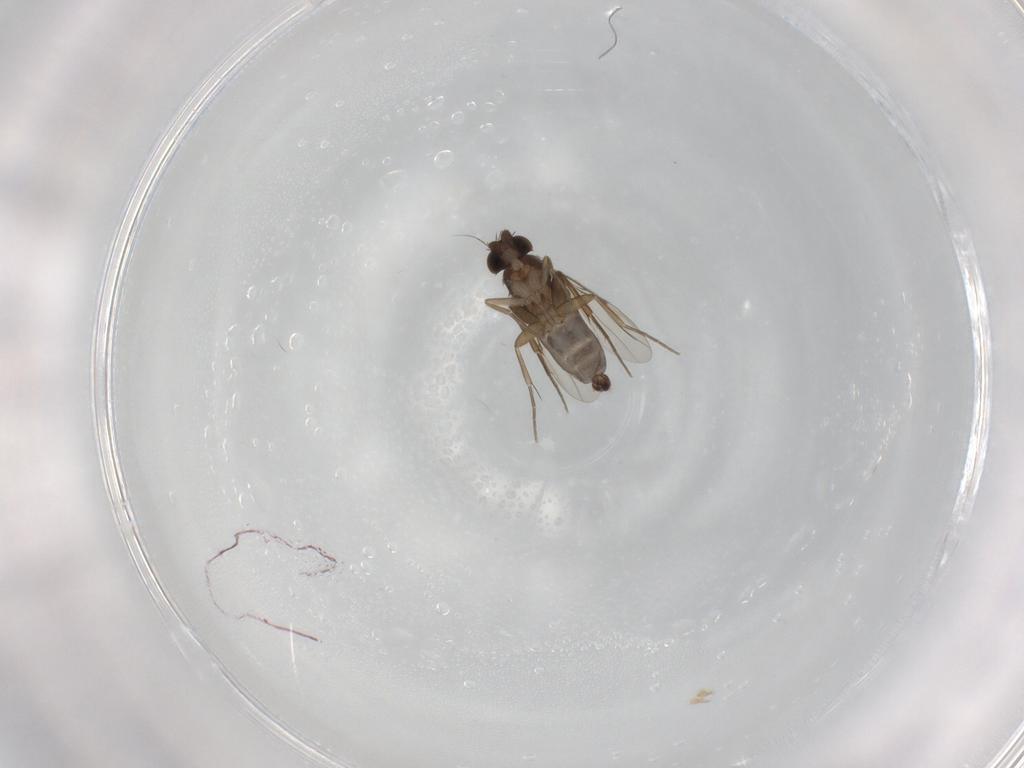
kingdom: Animalia
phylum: Arthropoda
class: Insecta
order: Diptera
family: Phoridae
